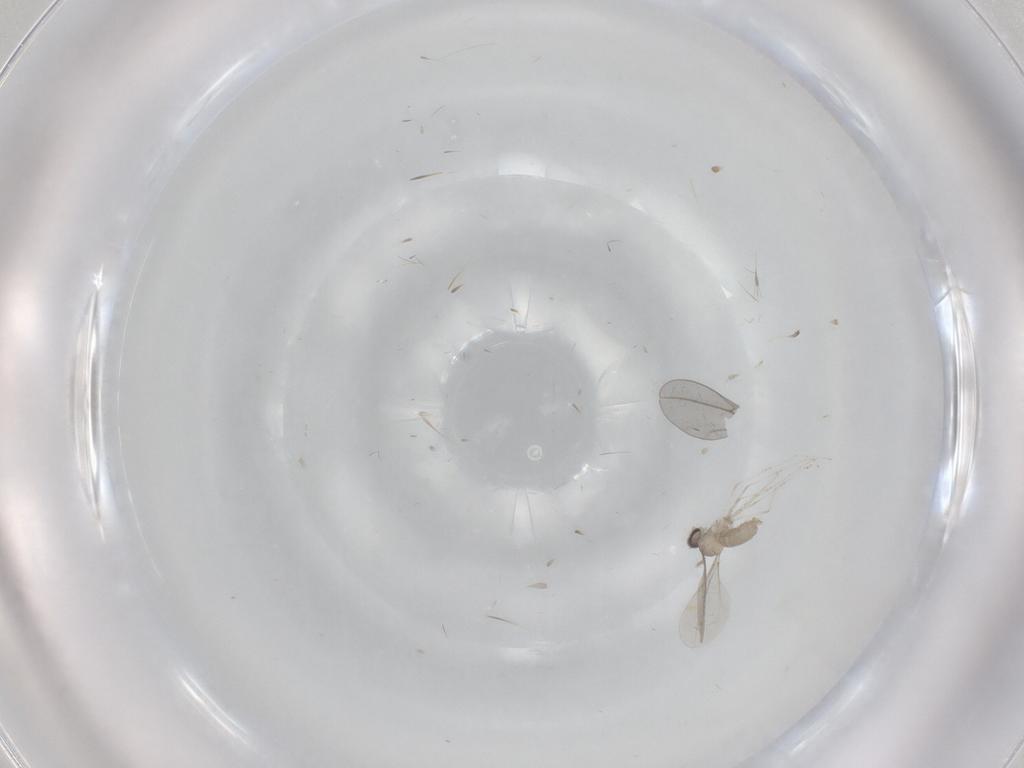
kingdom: Animalia
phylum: Arthropoda
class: Insecta
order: Diptera
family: Cecidomyiidae
